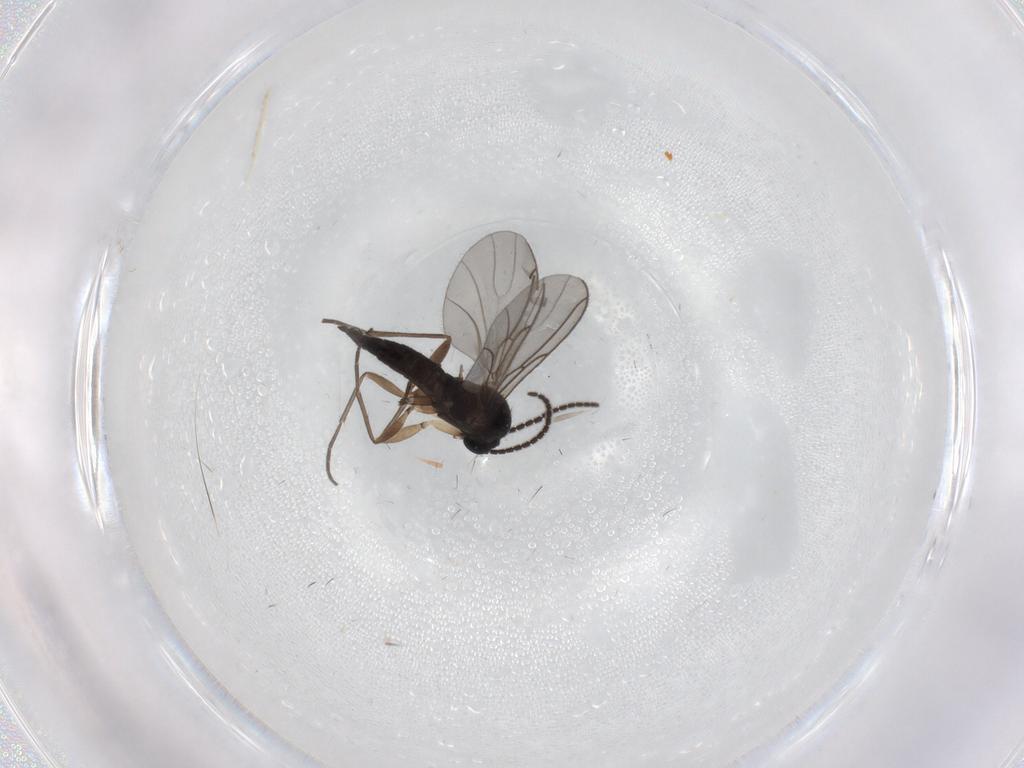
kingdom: Animalia
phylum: Arthropoda
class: Insecta
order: Diptera
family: Sciaridae
